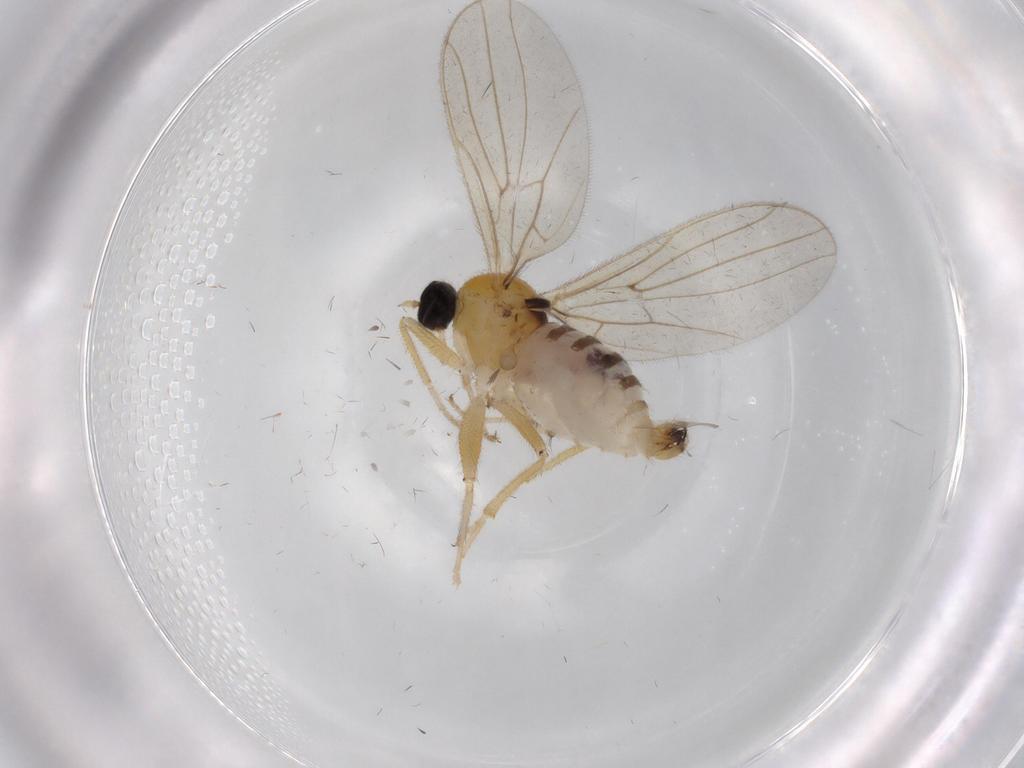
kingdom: Animalia
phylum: Arthropoda
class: Insecta
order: Diptera
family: Hybotidae
